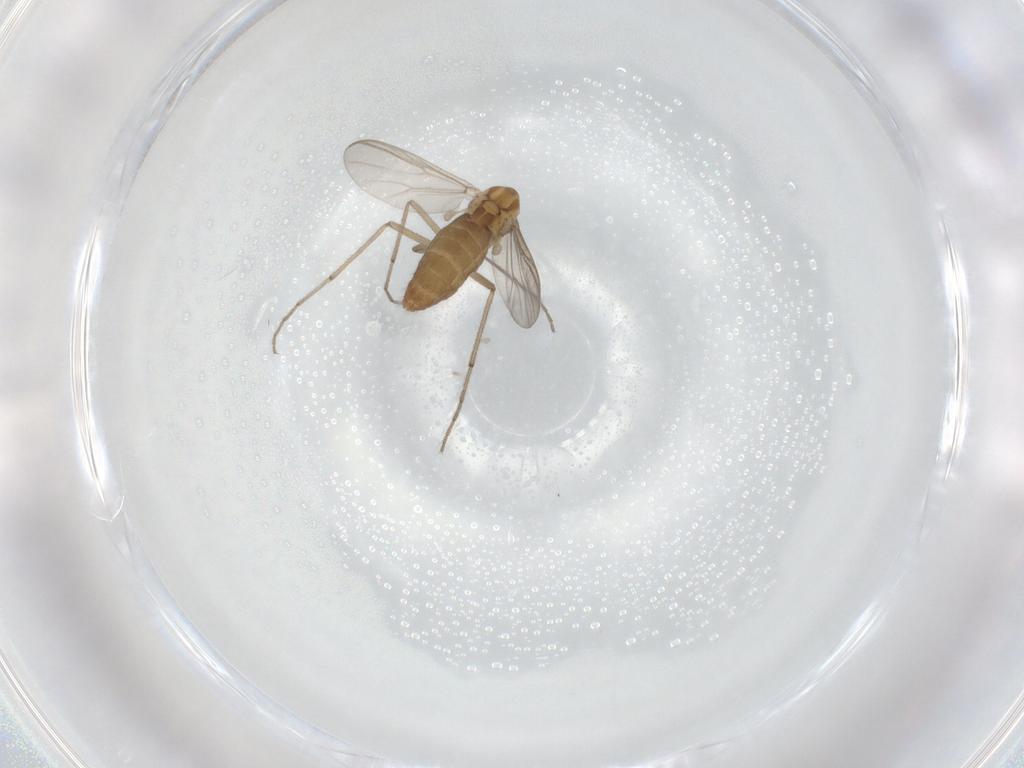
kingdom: Animalia
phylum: Arthropoda
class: Insecta
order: Diptera
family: Chironomidae
